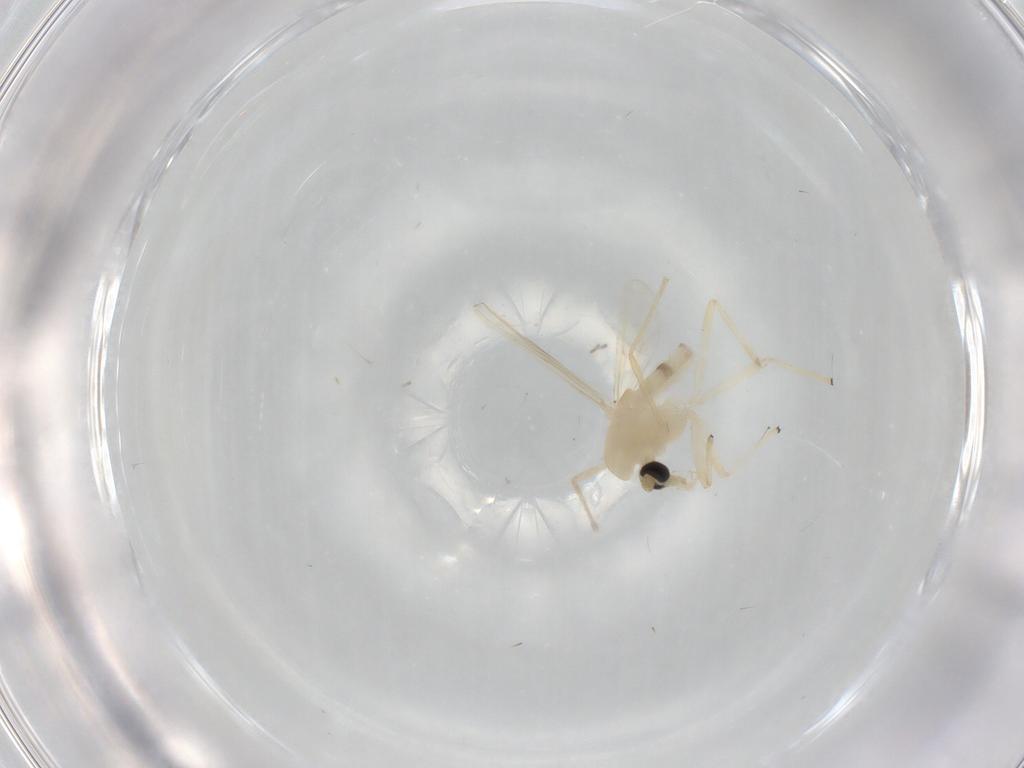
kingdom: Animalia
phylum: Arthropoda
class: Insecta
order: Diptera
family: Chironomidae
